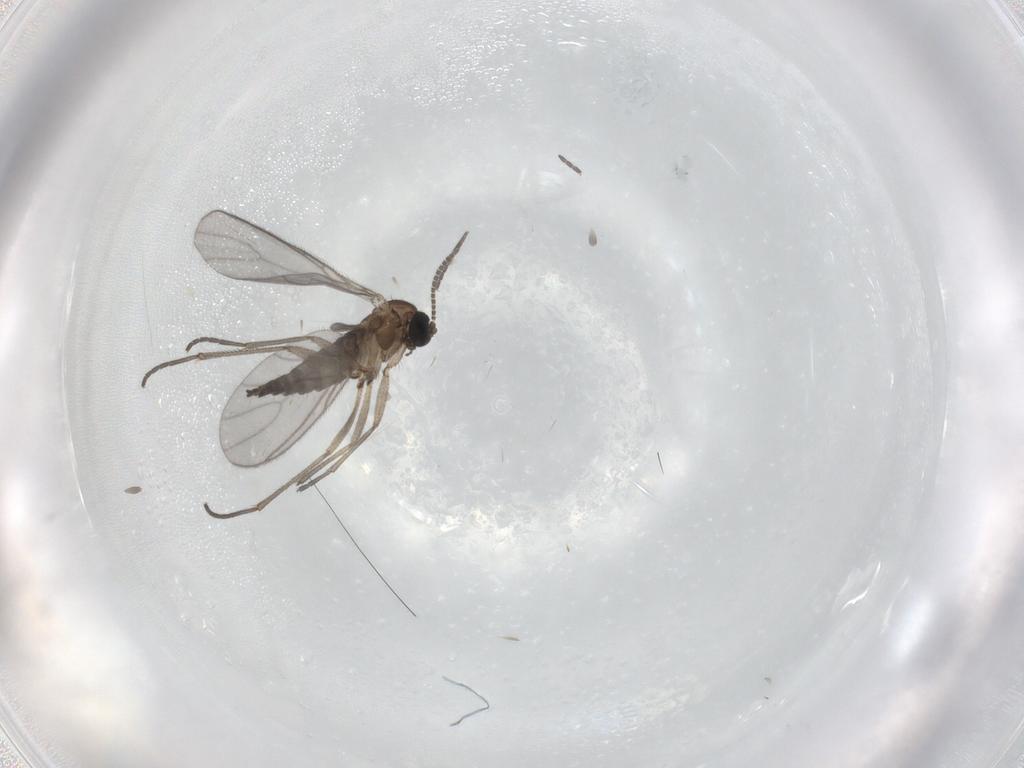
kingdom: Animalia
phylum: Arthropoda
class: Insecta
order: Diptera
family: Sciaridae
